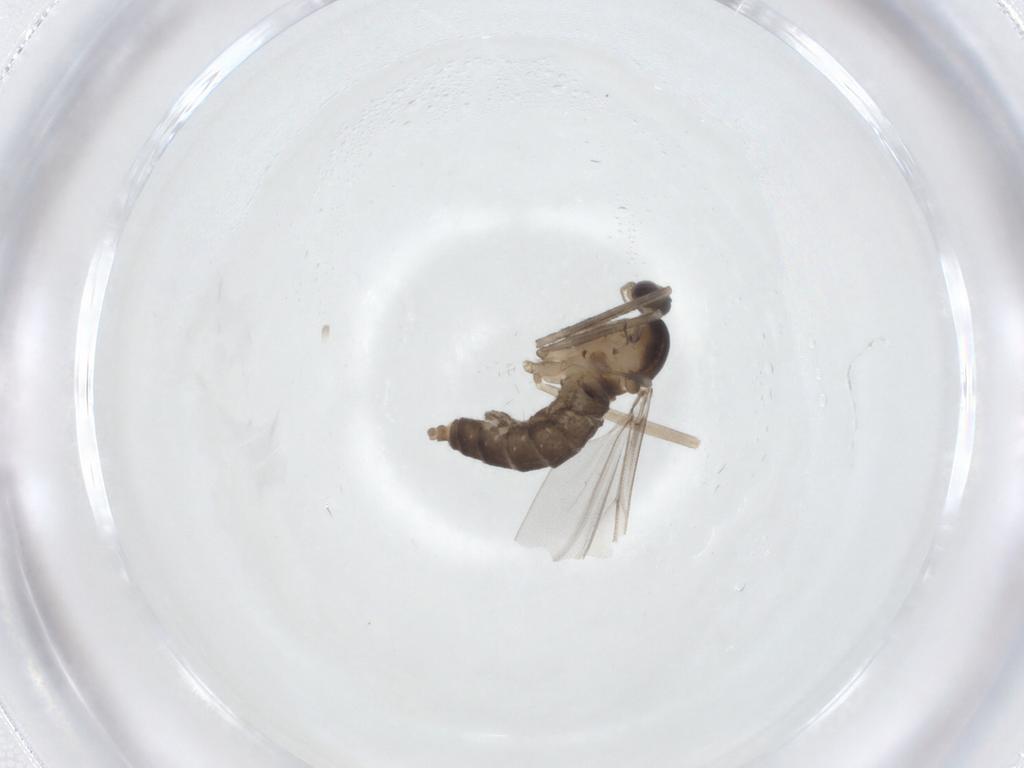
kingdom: Animalia
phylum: Arthropoda
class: Insecta
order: Diptera
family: Cecidomyiidae
